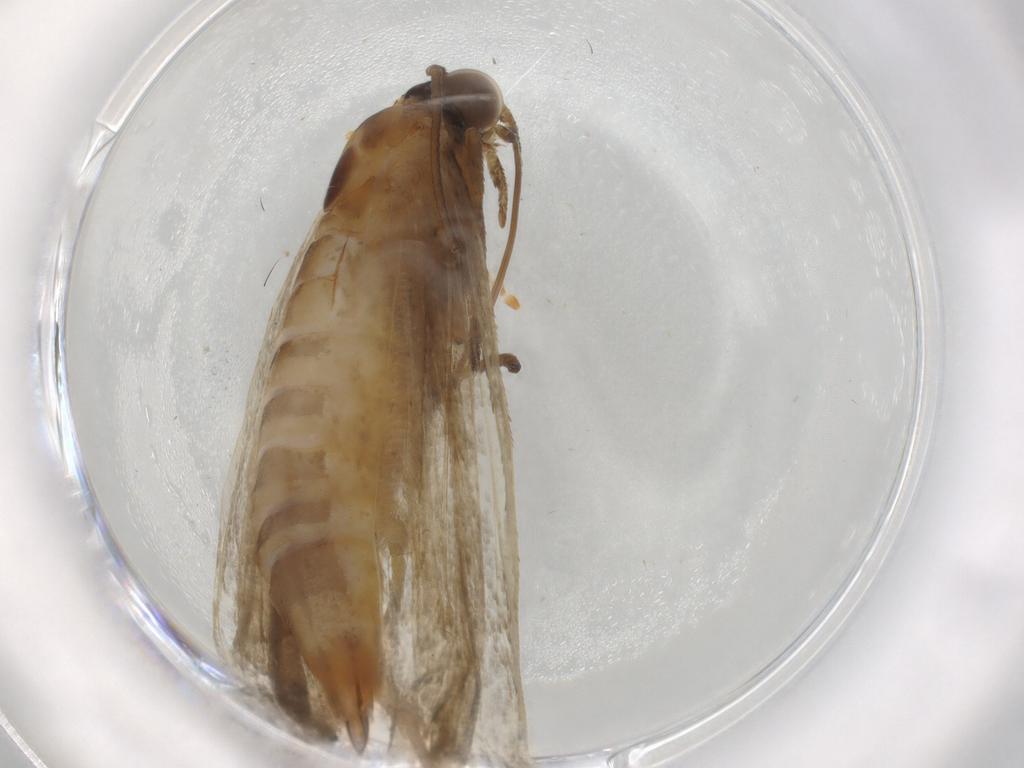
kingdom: Animalia
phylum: Arthropoda
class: Insecta
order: Lepidoptera
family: Pyralidae
